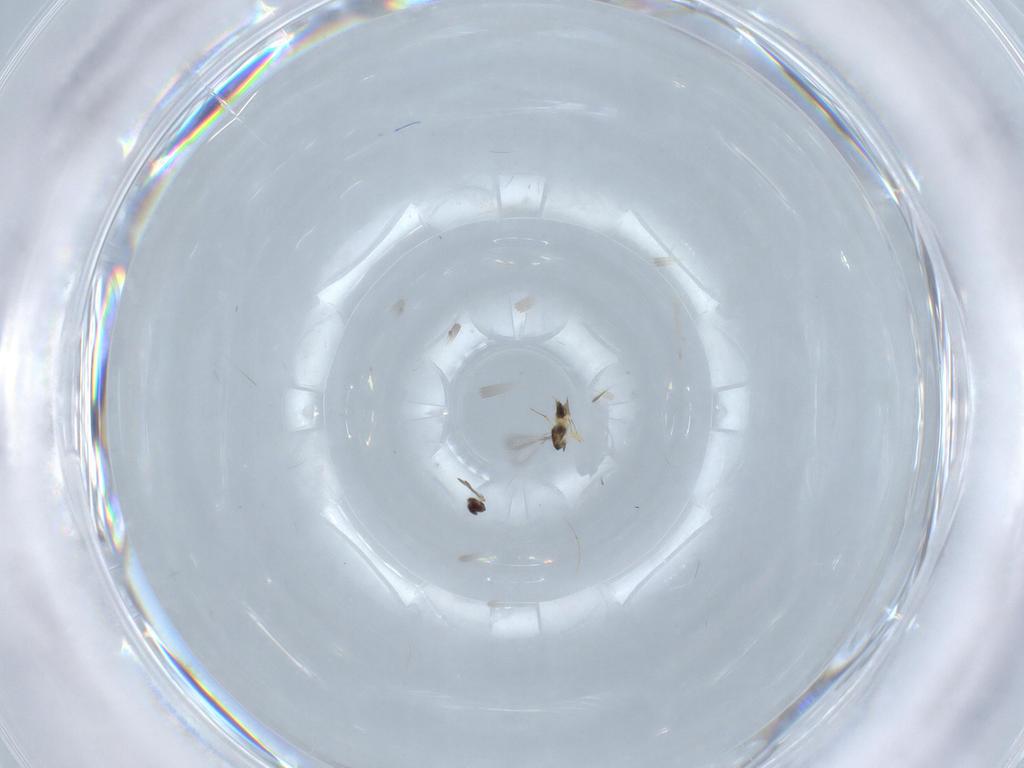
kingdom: Animalia
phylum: Arthropoda
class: Insecta
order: Hymenoptera
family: Mymaridae
